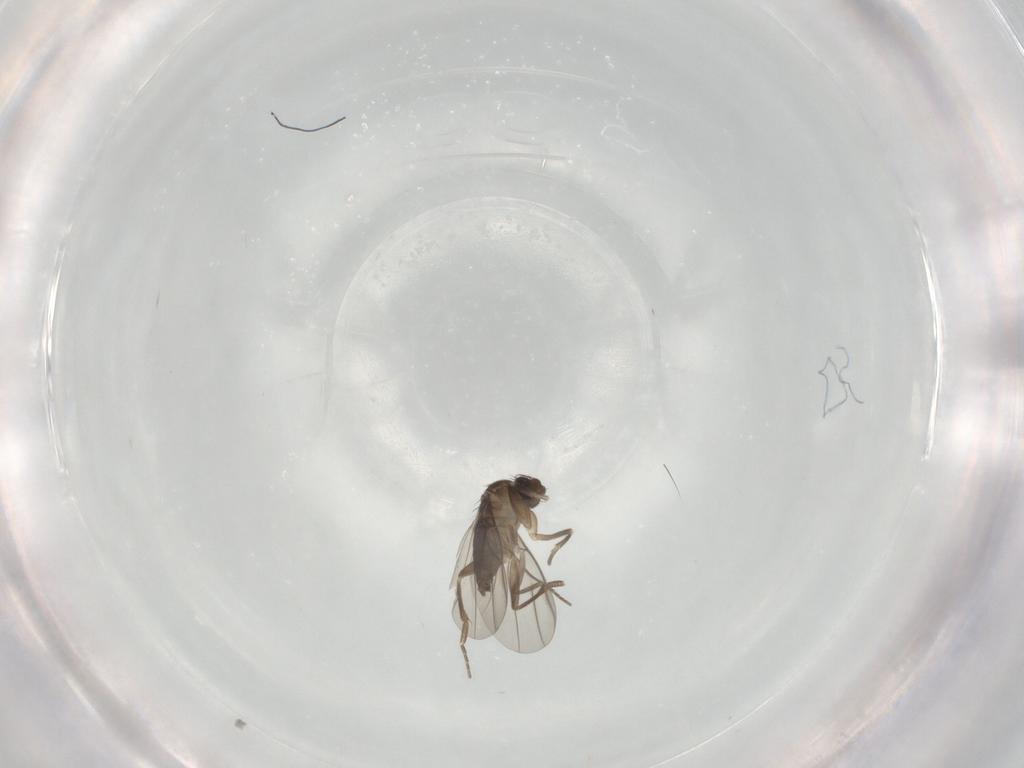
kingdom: Animalia
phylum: Arthropoda
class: Insecta
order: Diptera
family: Phoridae
